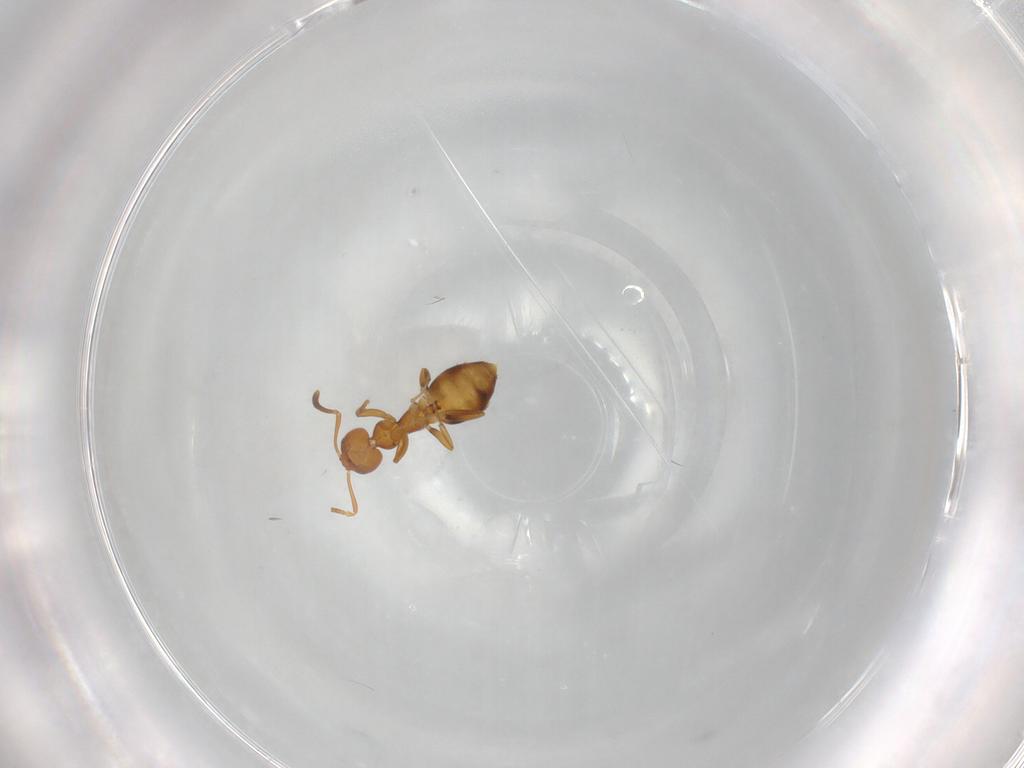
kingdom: Animalia
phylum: Arthropoda
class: Insecta
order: Hymenoptera
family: Formicidae
